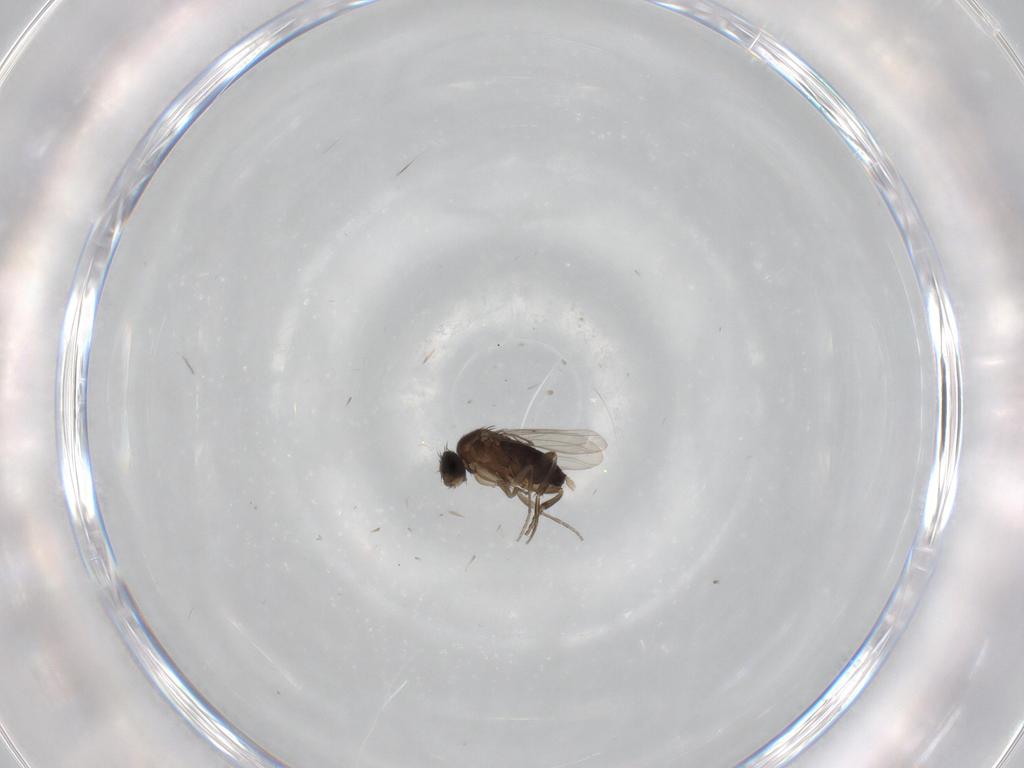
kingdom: Animalia
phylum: Arthropoda
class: Insecta
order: Diptera
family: Phoridae
